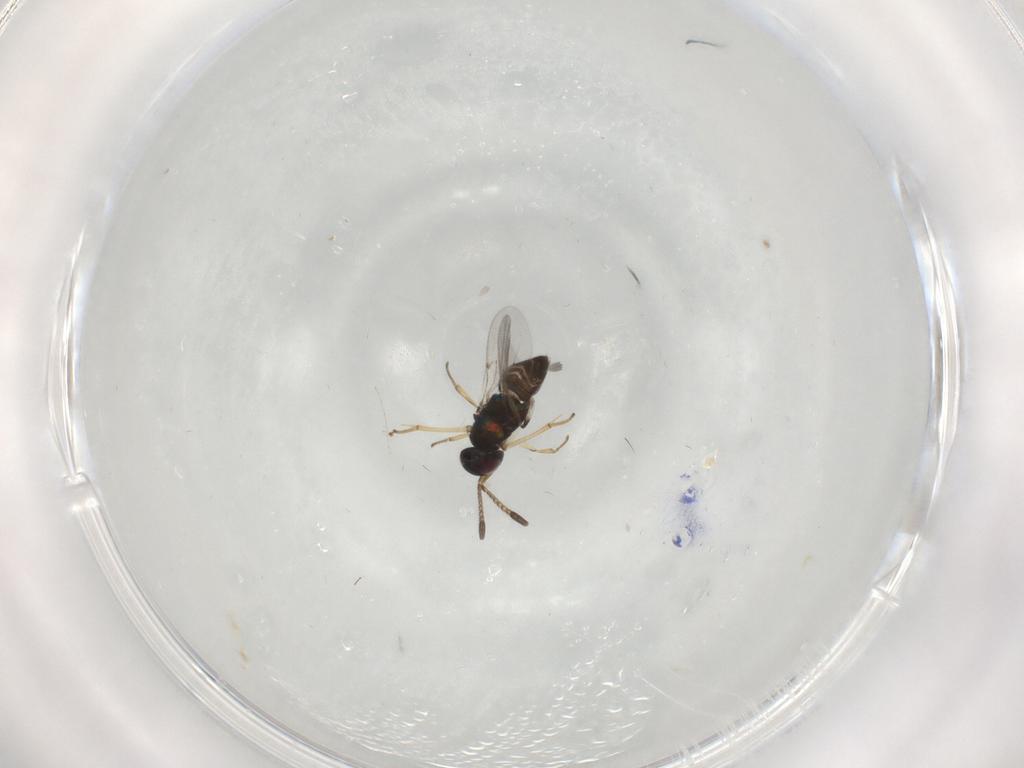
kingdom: Animalia
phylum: Arthropoda
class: Insecta
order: Hymenoptera
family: Encyrtidae
